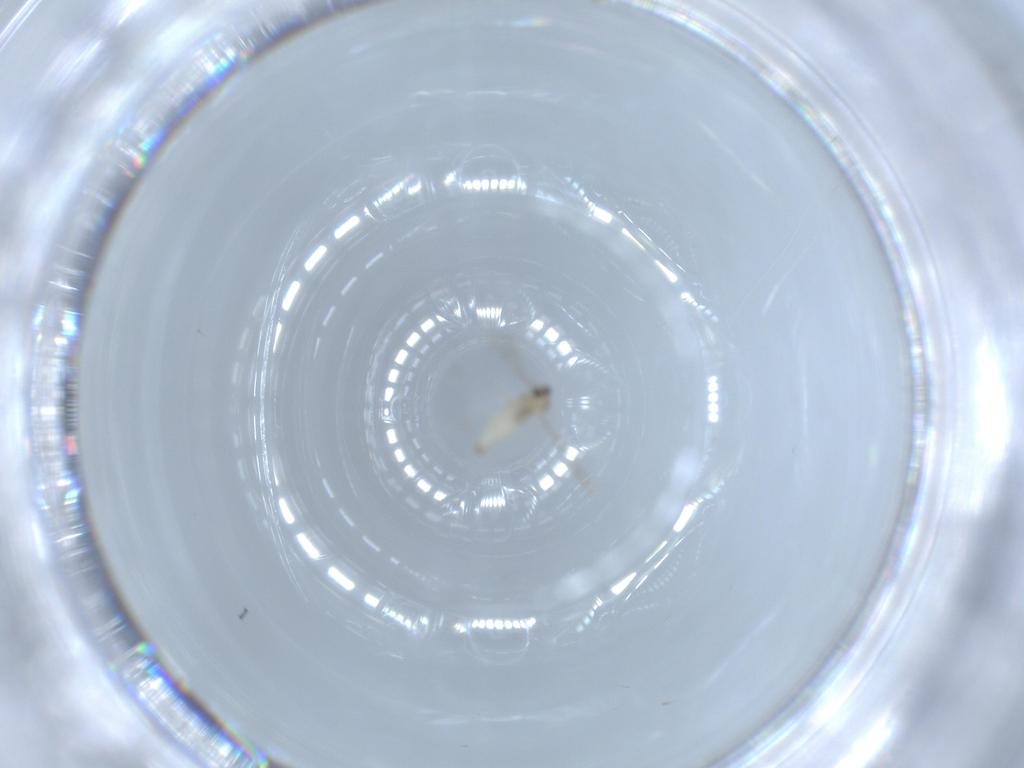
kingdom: Animalia
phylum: Arthropoda
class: Insecta
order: Diptera
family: Cecidomyiidae
